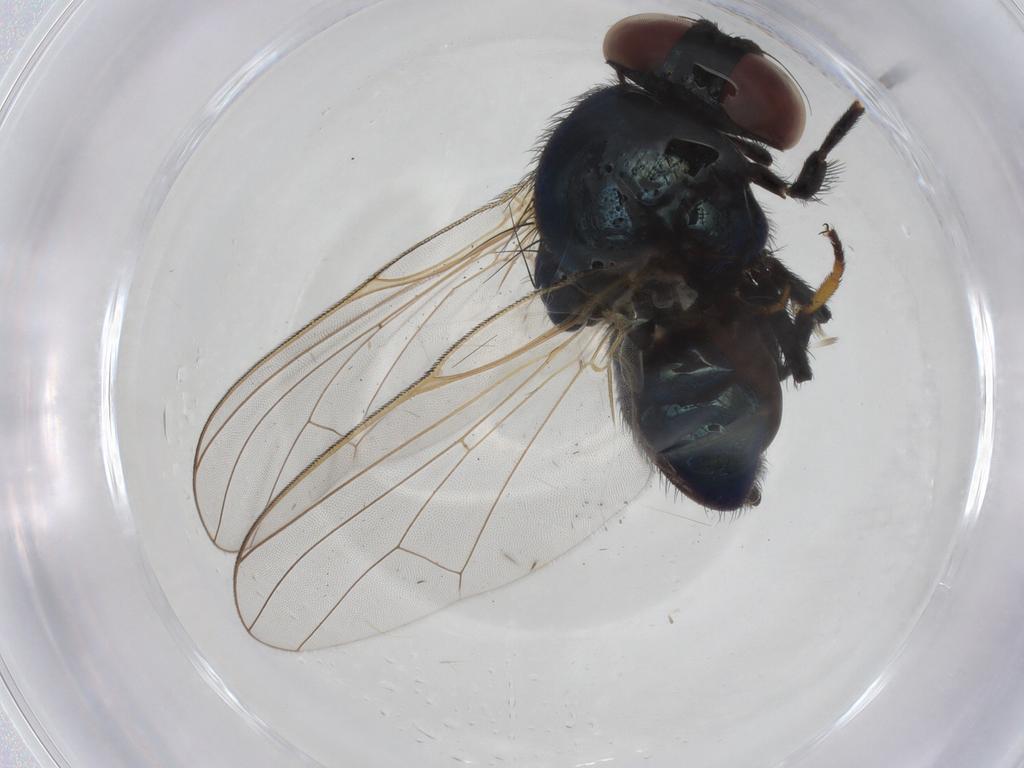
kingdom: Animalia
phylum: Arthropoda
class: Insecta
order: Diptera
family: Lonchaeidae
